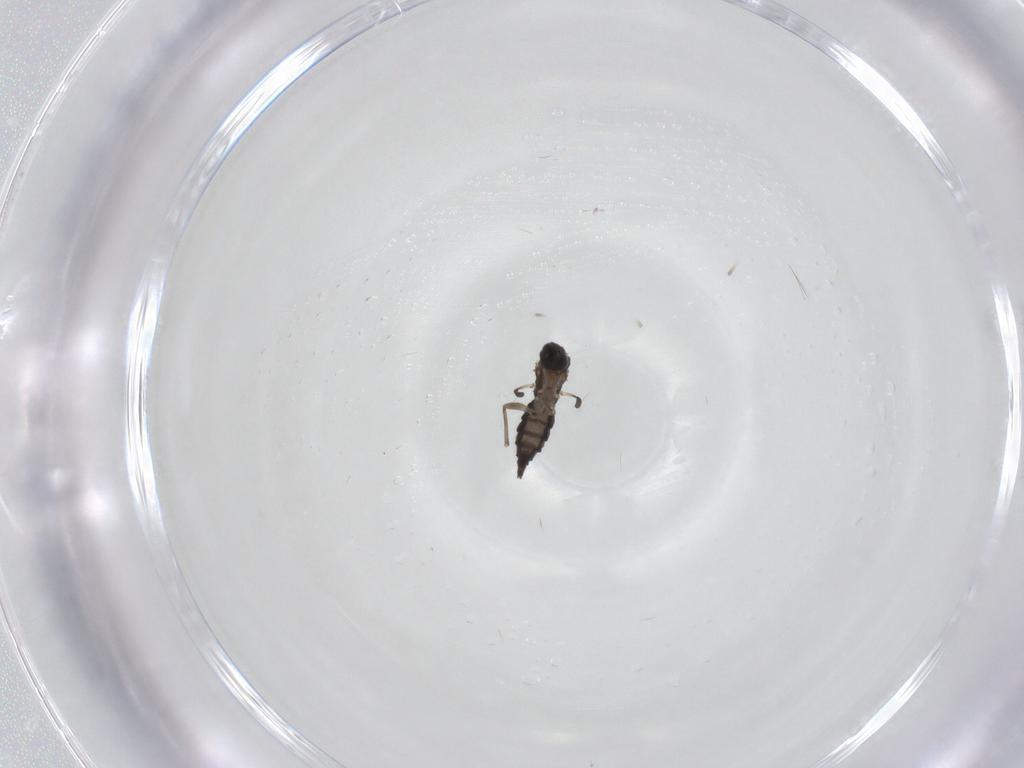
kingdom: Animalia
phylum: Arthropoda
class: Insecta
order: Diptera
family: Sciaridae
